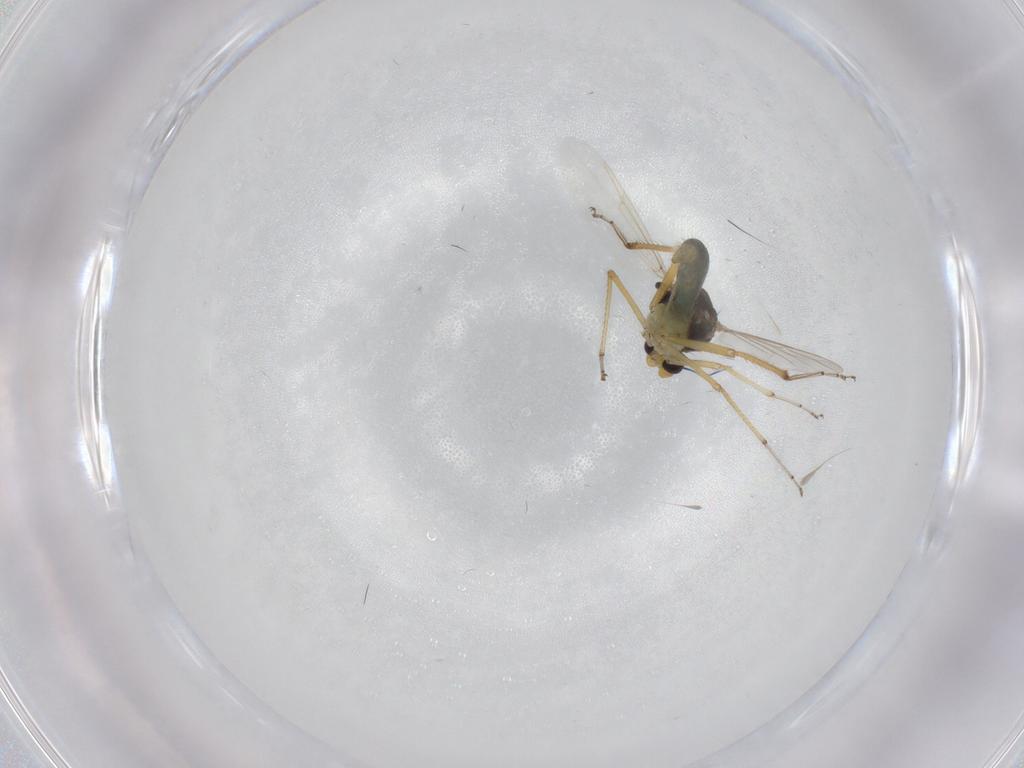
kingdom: Animalia
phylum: Arthropoda
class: Insecta
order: Diptera
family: Ceratopogonidae
